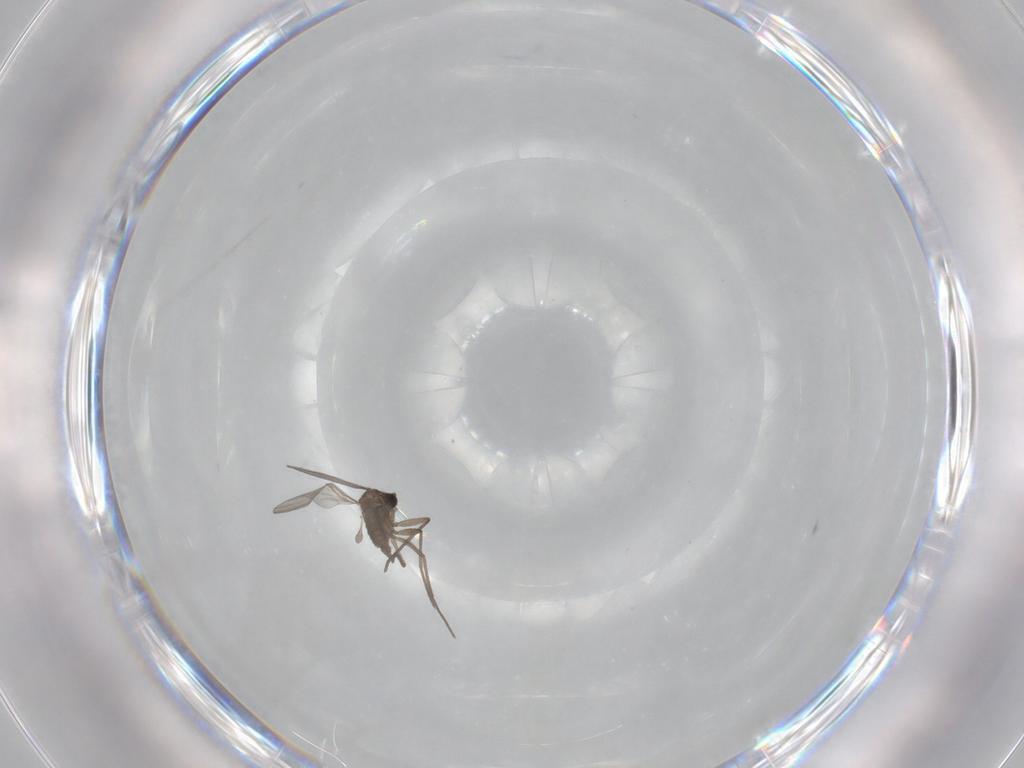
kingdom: Animalia
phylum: Arthropoda
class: Insecta
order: Diptera
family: Sciaridae
